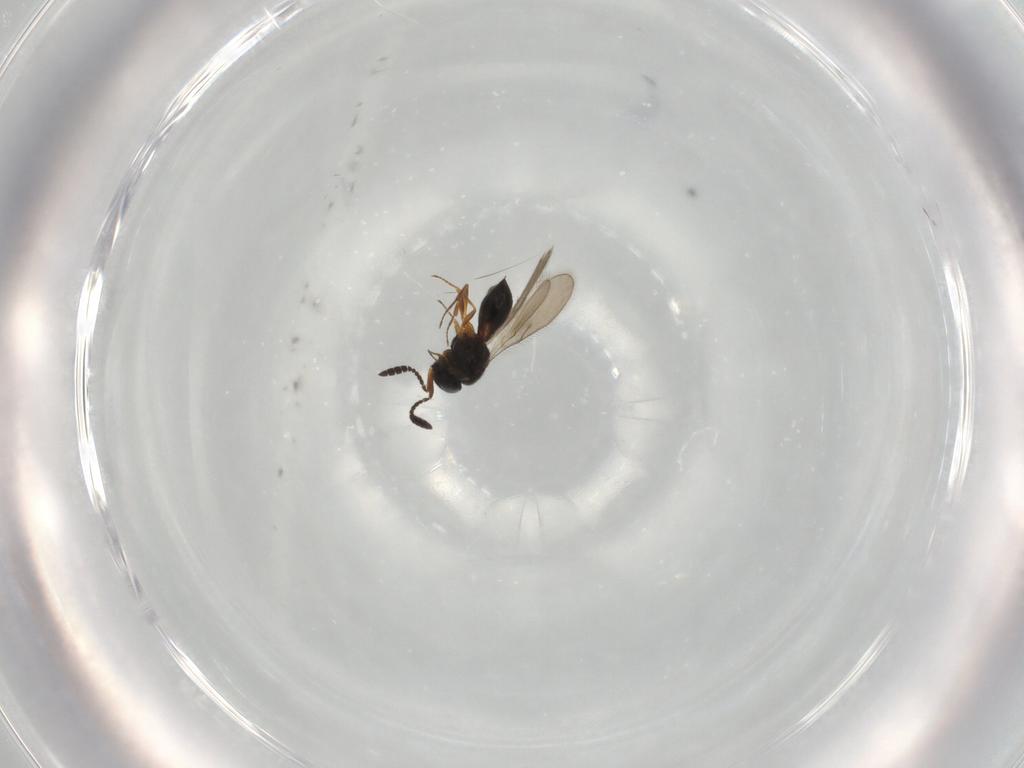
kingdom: Animalia
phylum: Arthropoda
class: Insecta
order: Hymenoptera
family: Scelionidae
